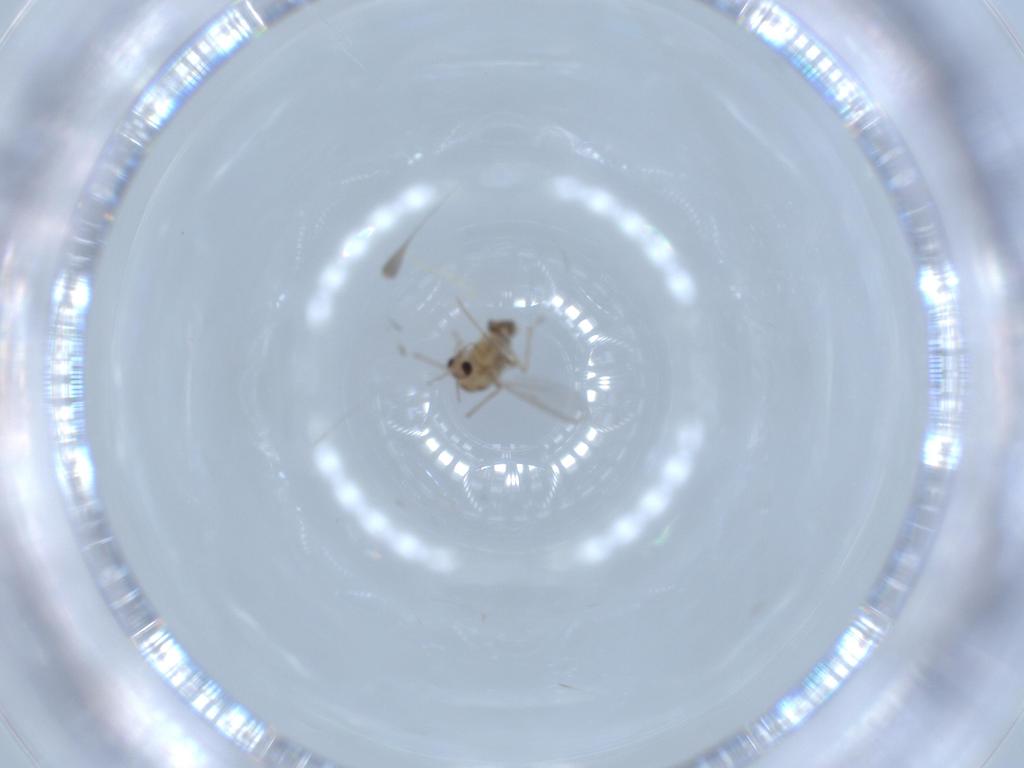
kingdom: Animalia
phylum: Arthropoda
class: Insecta
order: Diptera
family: Chironomidae
